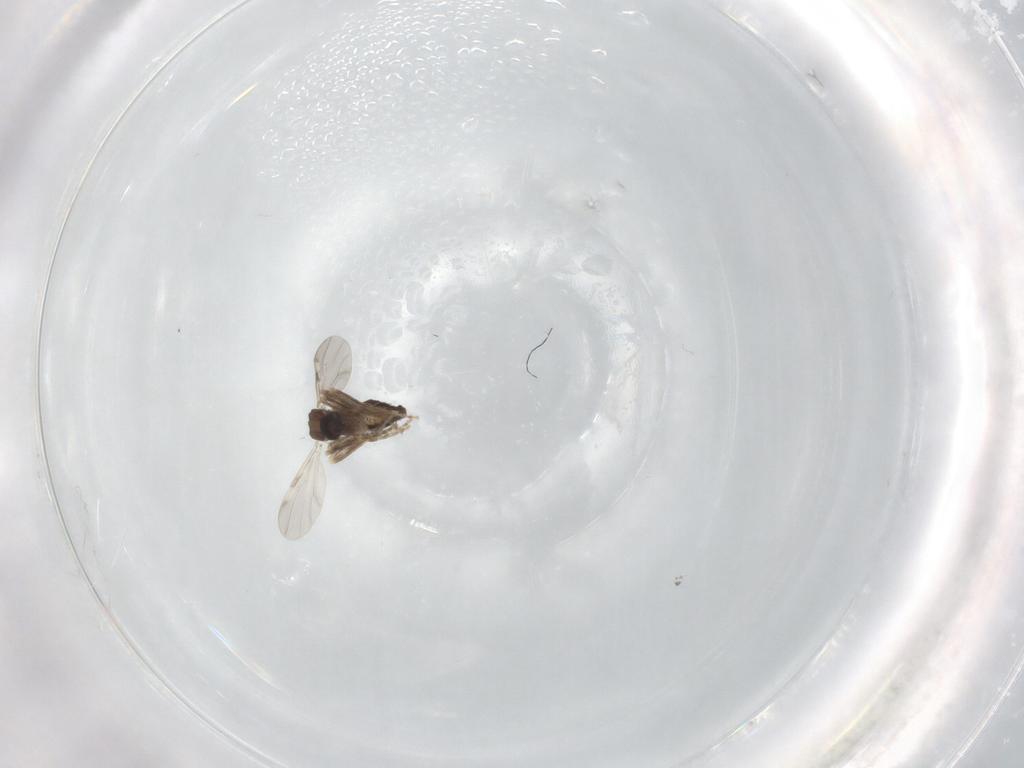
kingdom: Animalia
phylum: Arthropoda
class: Insecta
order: Diptera
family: Ceratopogonidae
